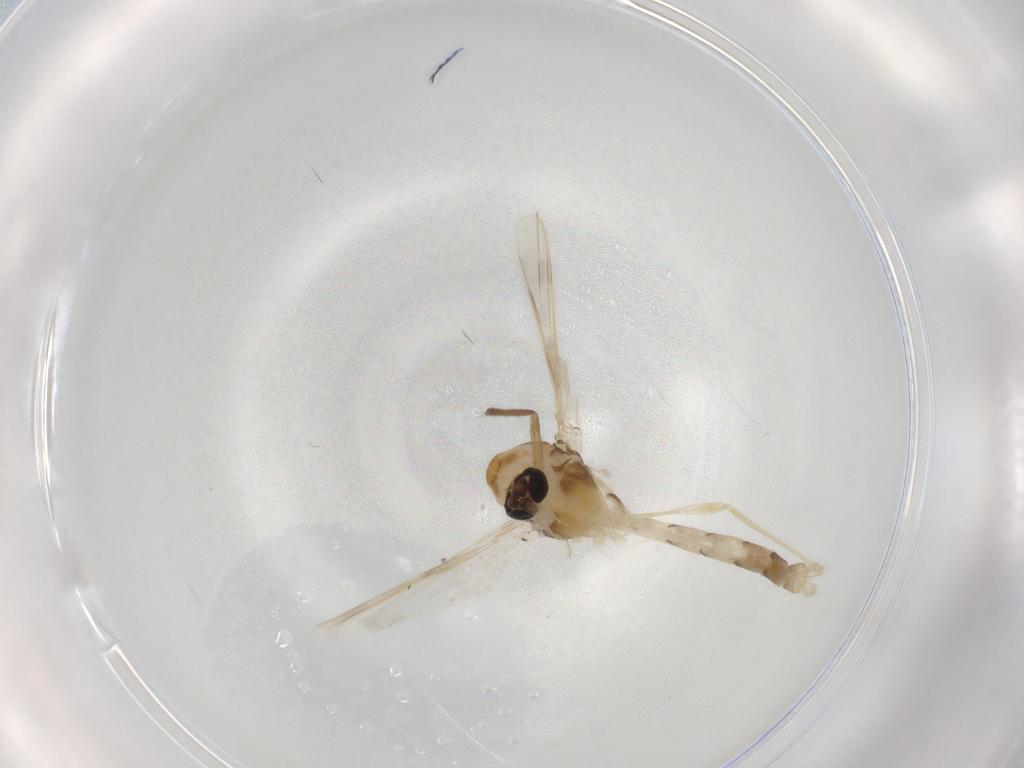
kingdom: Animalia
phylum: Arthropoda
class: Insecta
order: Diptera
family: Chironomidae
